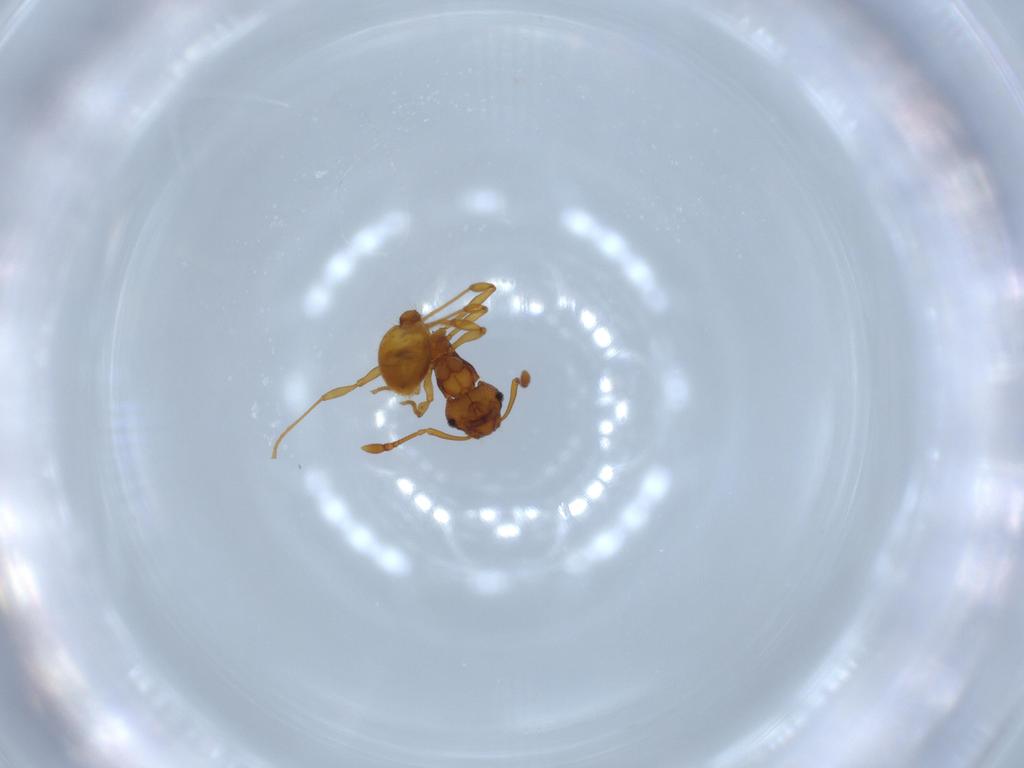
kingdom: Animalia
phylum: Arthropoda
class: Insecta
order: Hymenoptera
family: Formicidae
